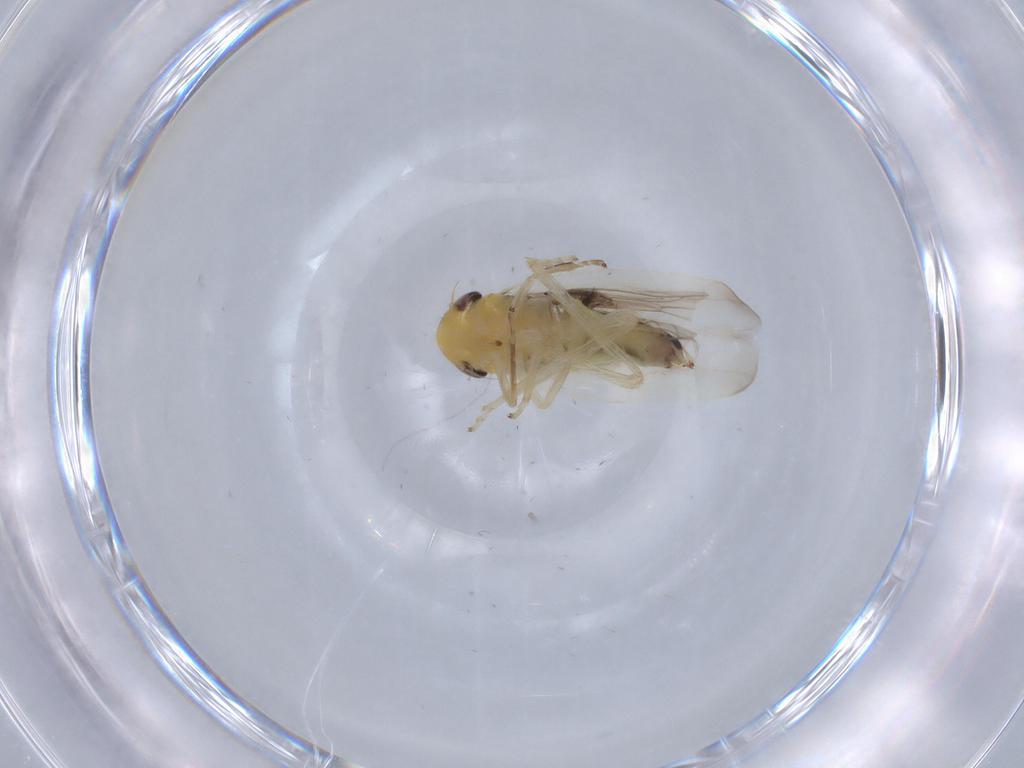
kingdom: Animalia
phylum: Arthropoda
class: Insecta
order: Hemiptera
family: Cicadellidae
